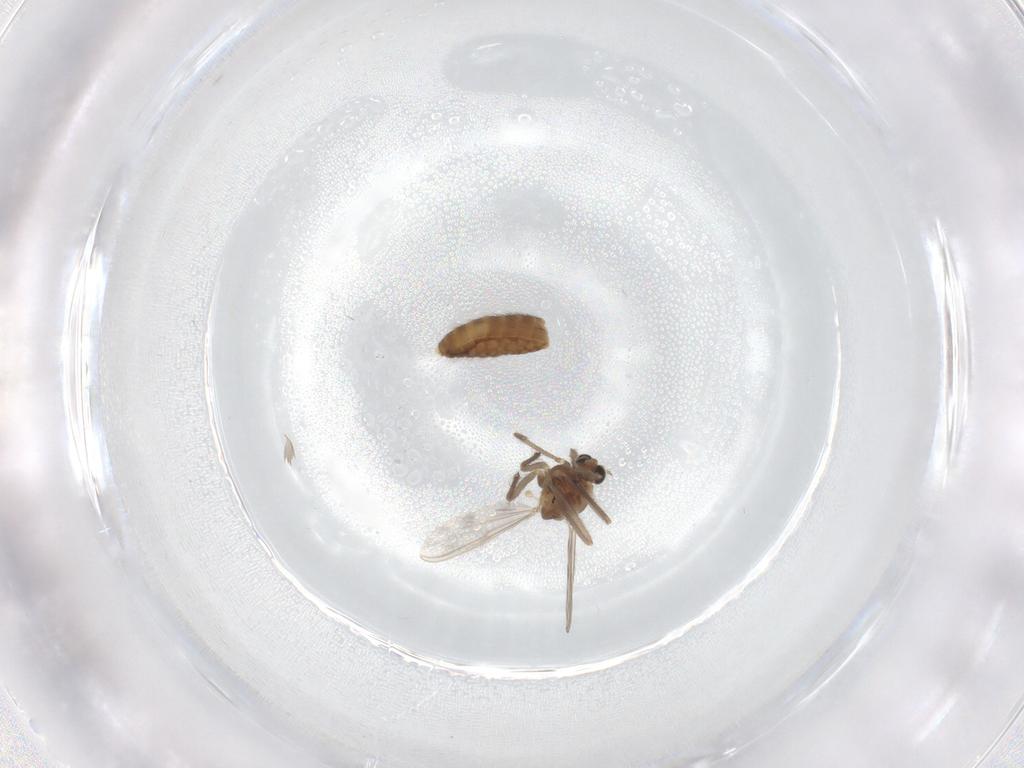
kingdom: Animalia
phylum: Arthropoda
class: Insecta
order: Diptera
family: Chironomidae
